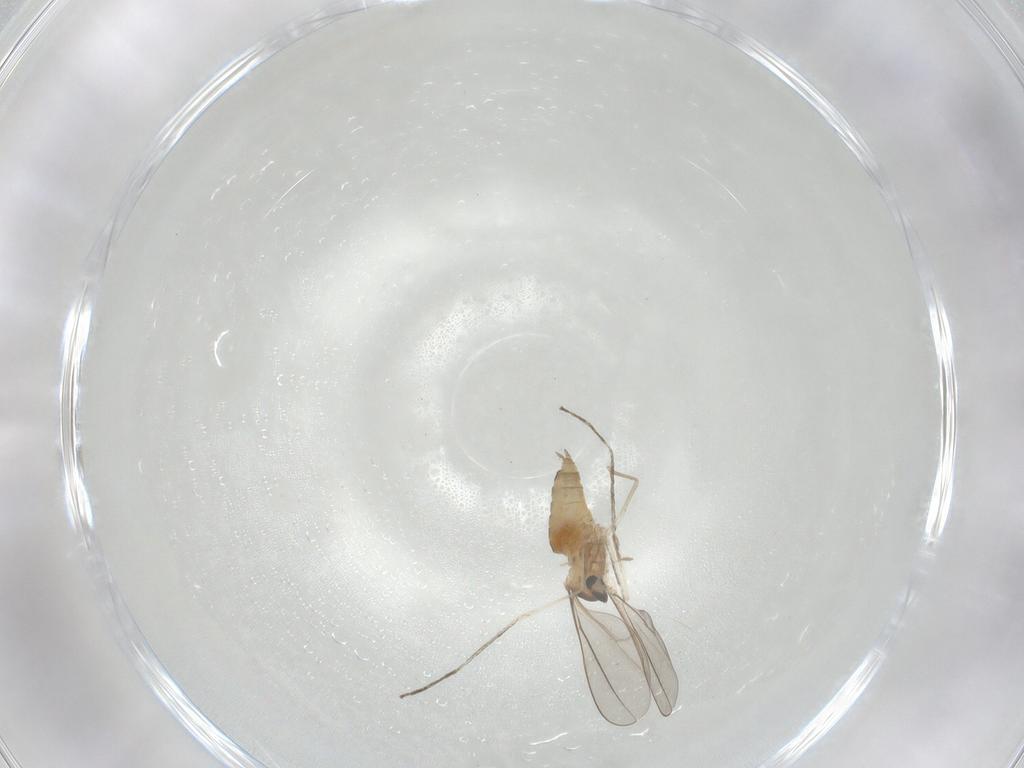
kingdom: Animalia
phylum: Arthropoda
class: Insecta
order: Diptera
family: Cecidomyiidae
